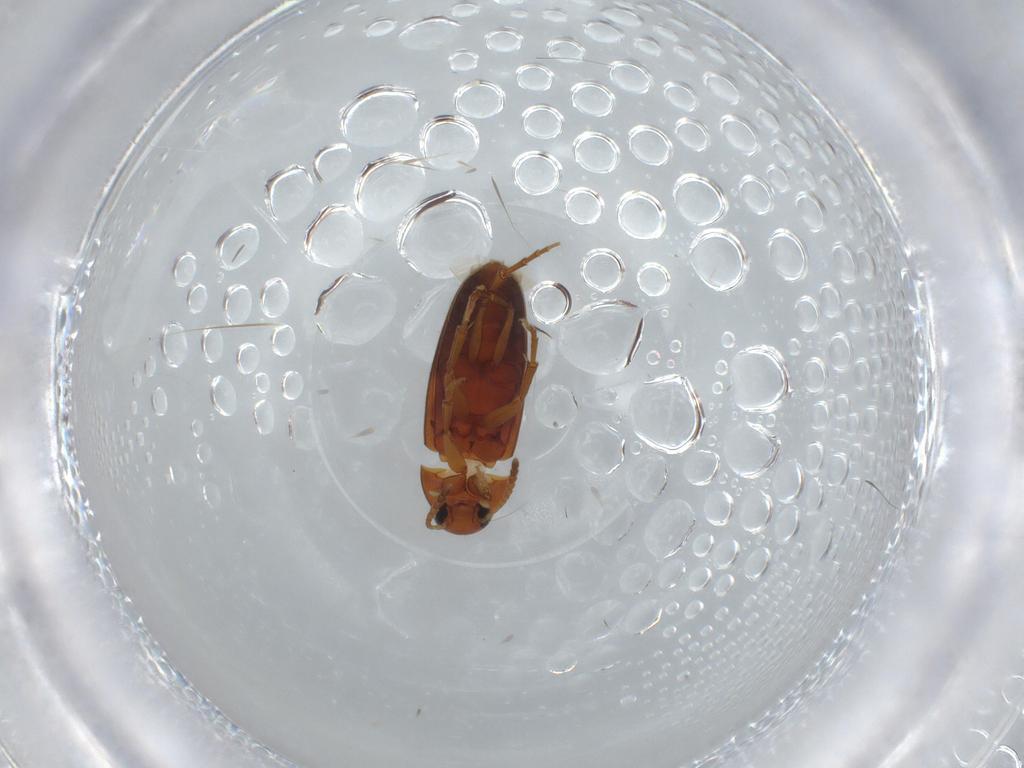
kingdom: Animalia
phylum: Arthropoda
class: Insecta
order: Coleoptera
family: Scraptiidae
